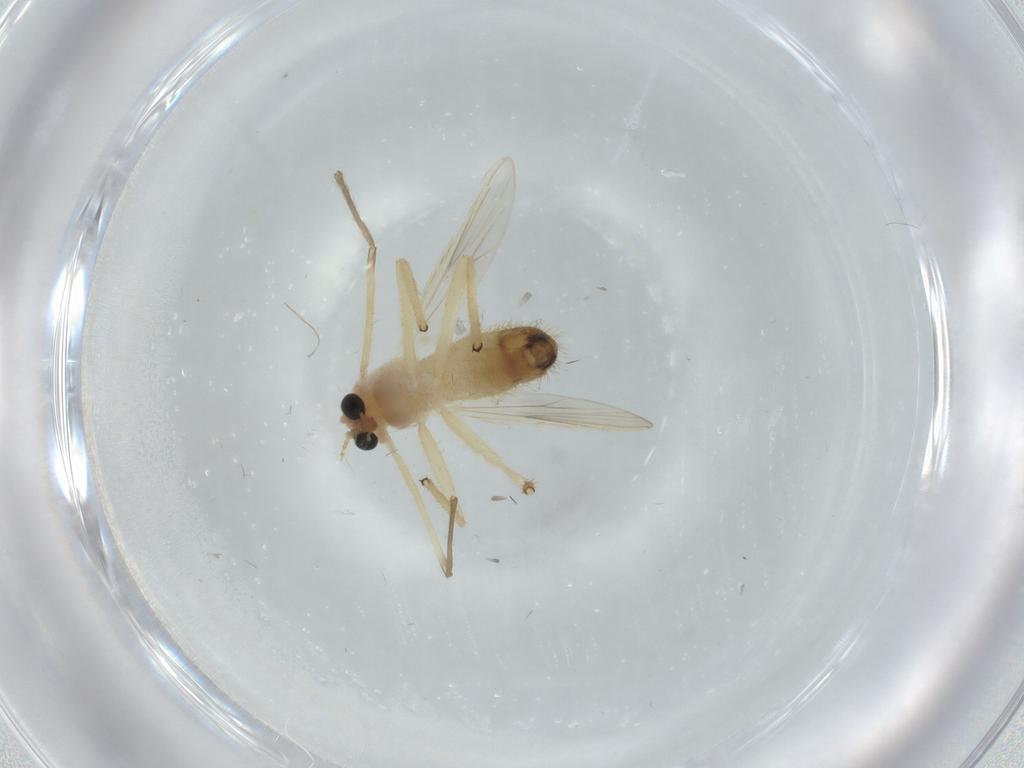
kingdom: Animalia
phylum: Arthropoda
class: Insecta
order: Diptera
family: Chironomidae
